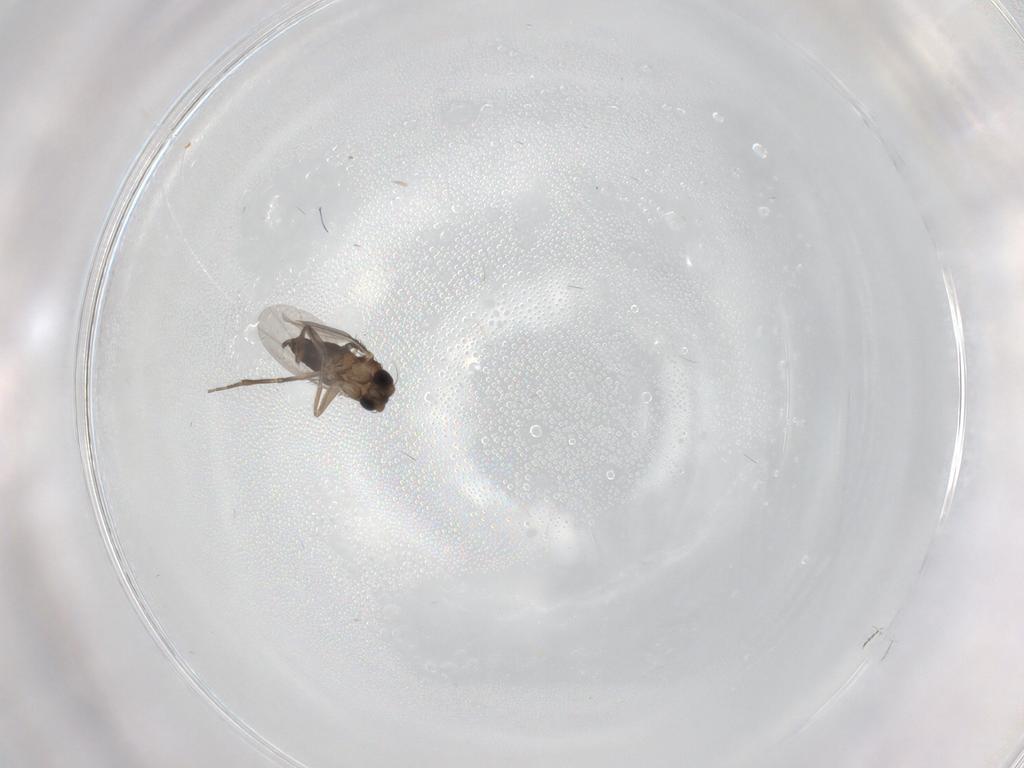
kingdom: Animalia
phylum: Arthropoda
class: Insecta
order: Diptera
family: Phoridae
